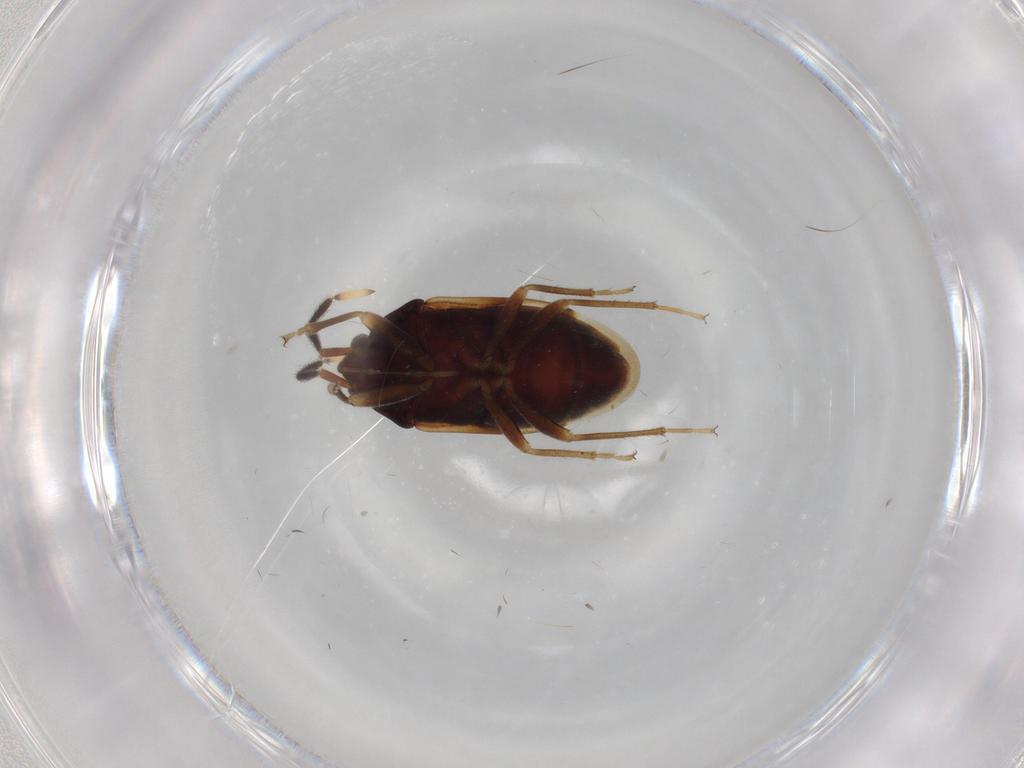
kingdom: Animalia
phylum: Arthropoda
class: Insecta
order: Hemiptera
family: Rhyparochromidae
